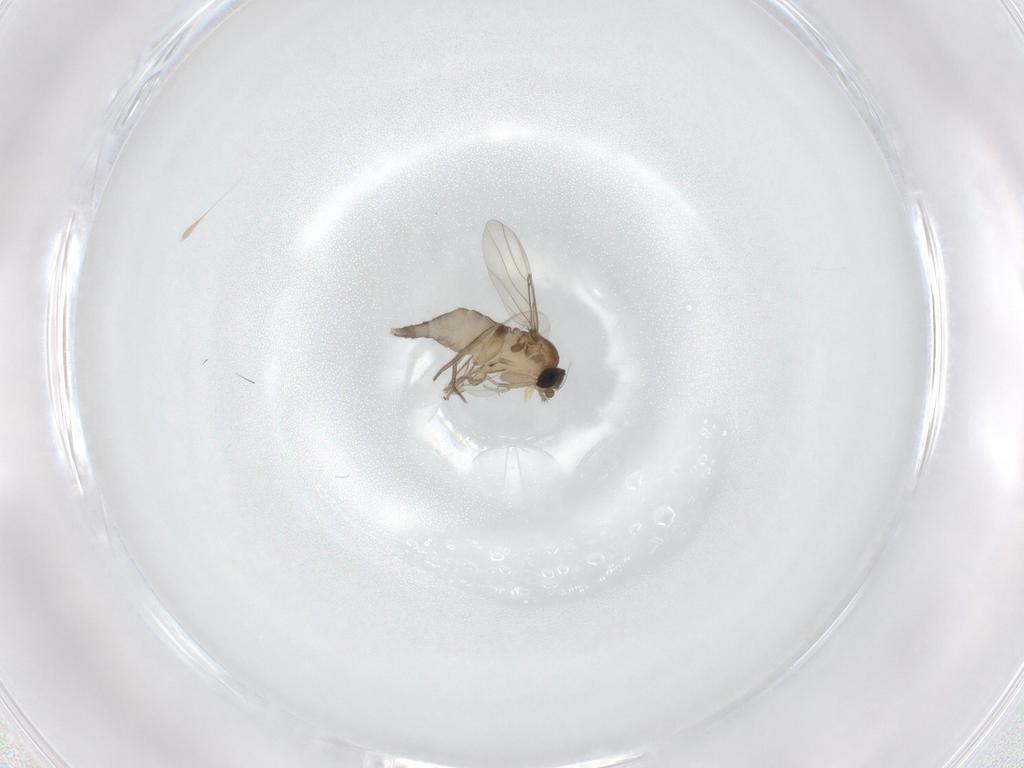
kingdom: Animalia
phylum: Arthropoda
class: Insecta
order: Diptera
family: Phoridae
